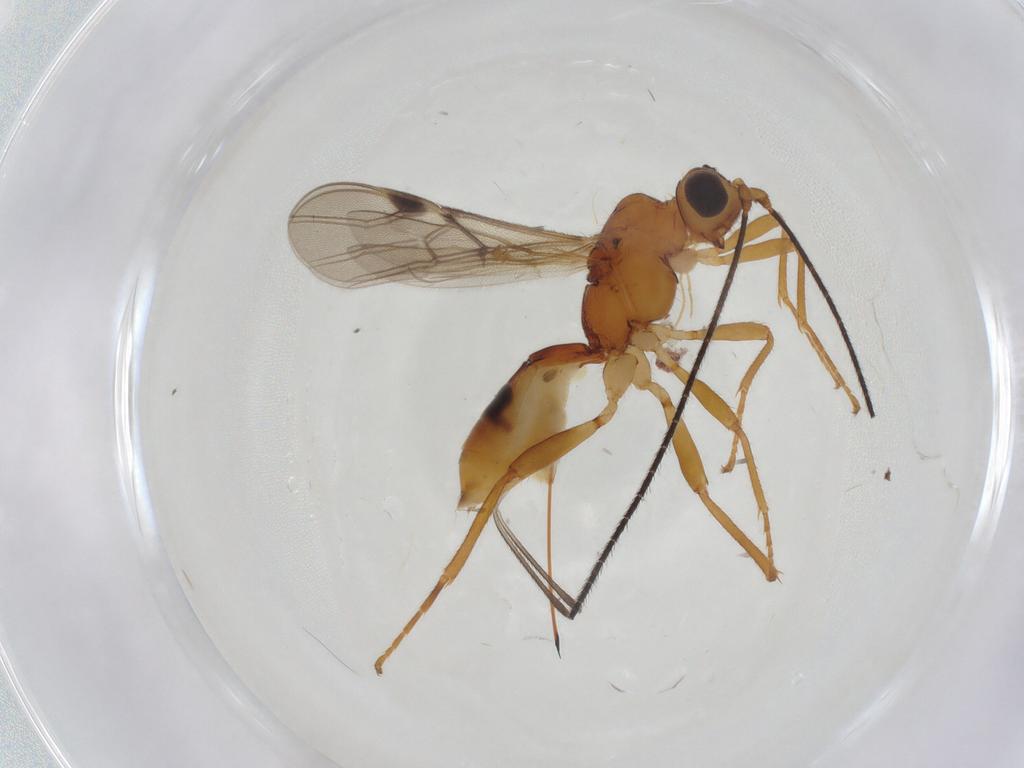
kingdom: Animalia
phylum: Arthropoda
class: Insecta
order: Hymenoptera
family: Braconidae
